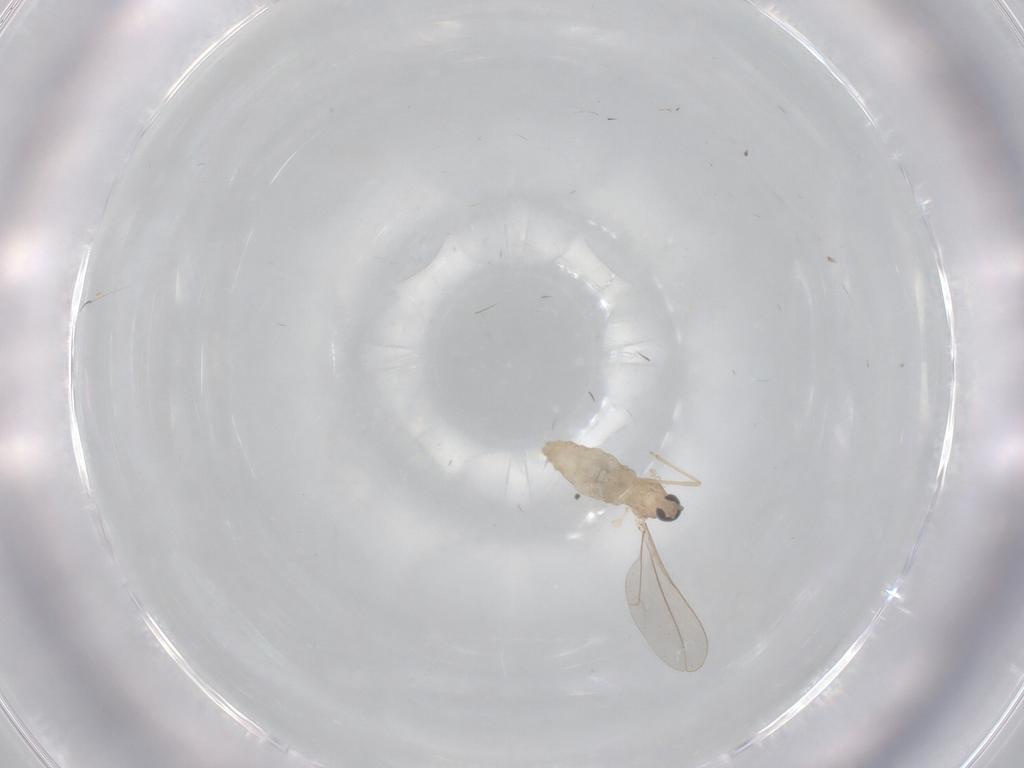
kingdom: Animalia
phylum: Arthropoda
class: Insecta
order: Diptera
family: Cecidomyiidae
